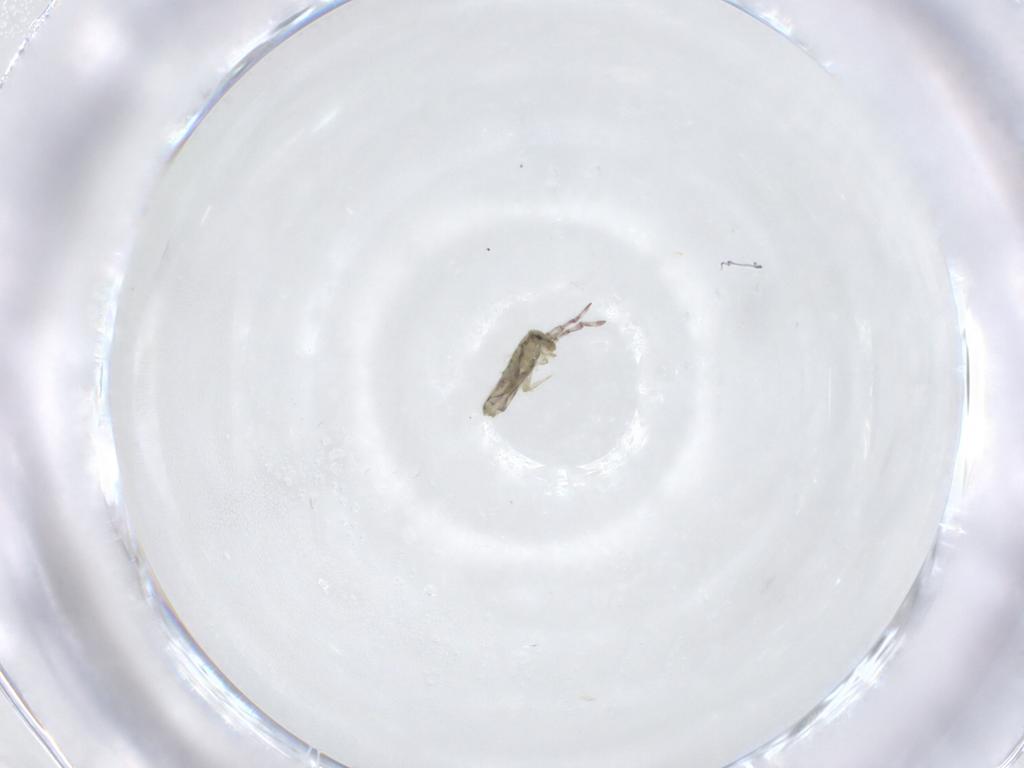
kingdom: Animalia
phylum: Arthropoda
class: Collembola
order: Entomobryomorpha
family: Entomobryidae
